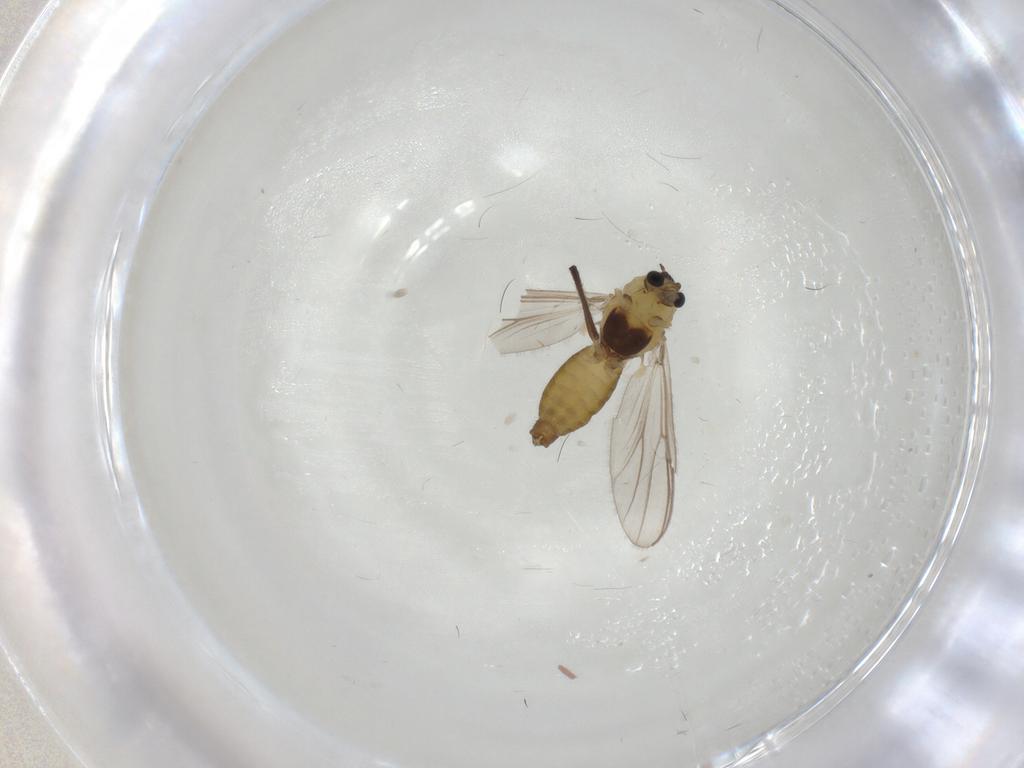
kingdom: Animalia
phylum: Arthropoda
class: Insecta
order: Diptera
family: Chironomidae
